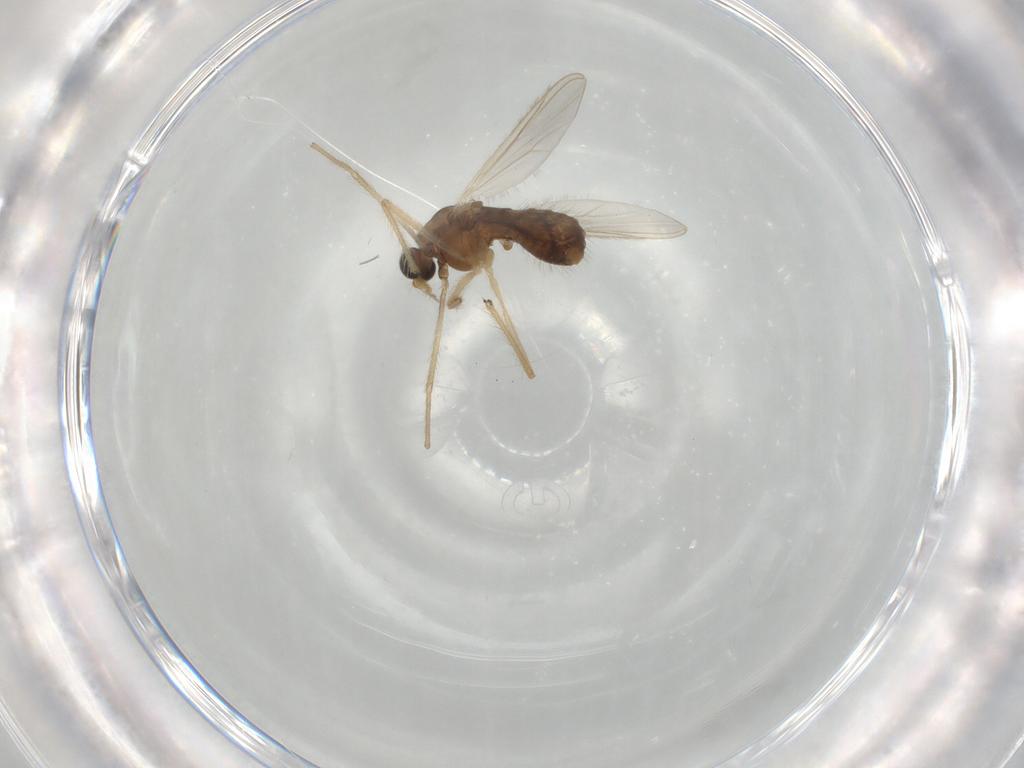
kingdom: Animalia
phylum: Arthropoda
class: Insecta
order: Diptera
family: Chironomidae
